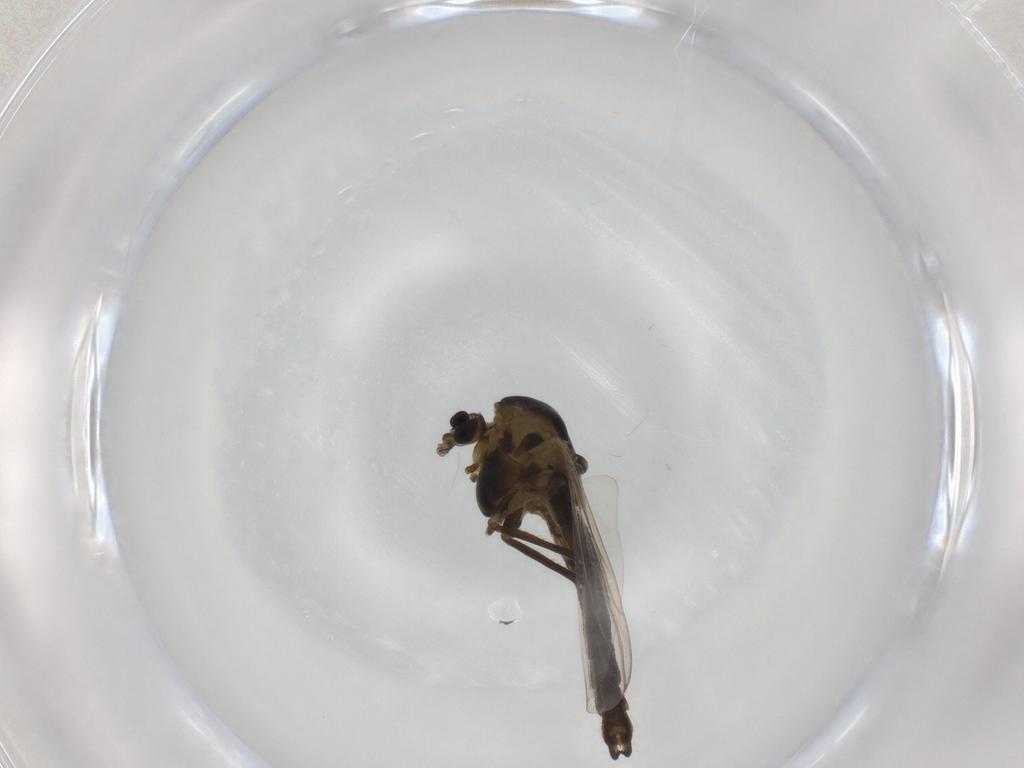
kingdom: Animalia
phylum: Arthropoda
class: Insecta
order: Diptera
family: Chironomidae
